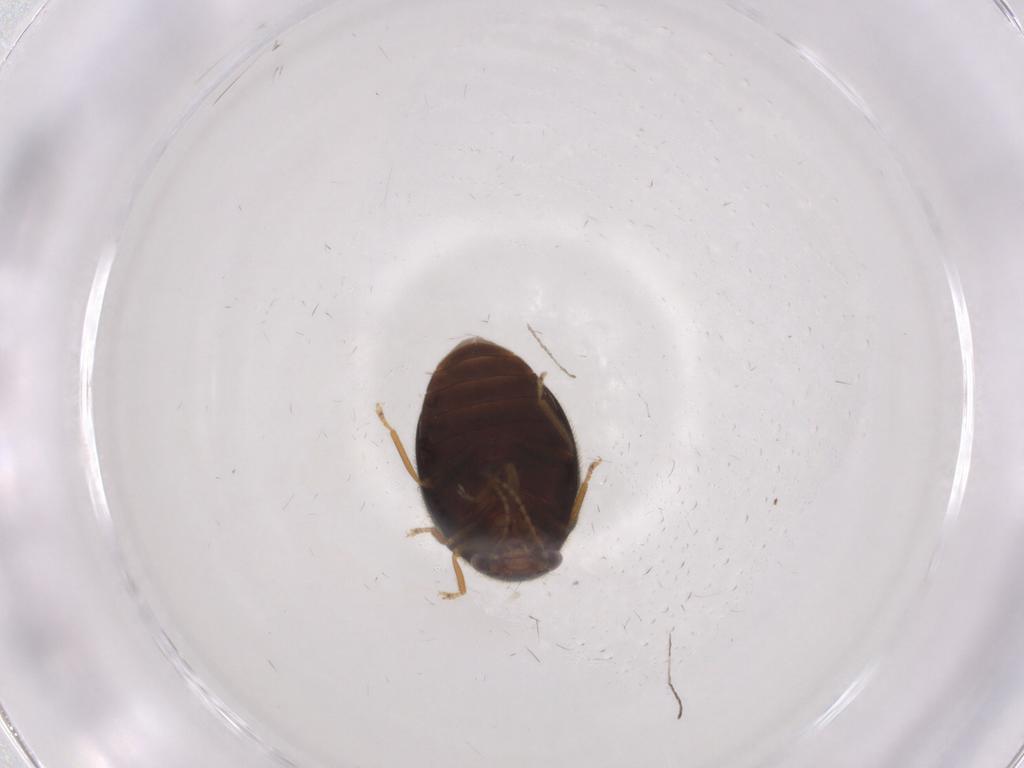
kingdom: Animalia
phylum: Arthropoda
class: Insecta
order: Coleoptera
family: Scirtidae
